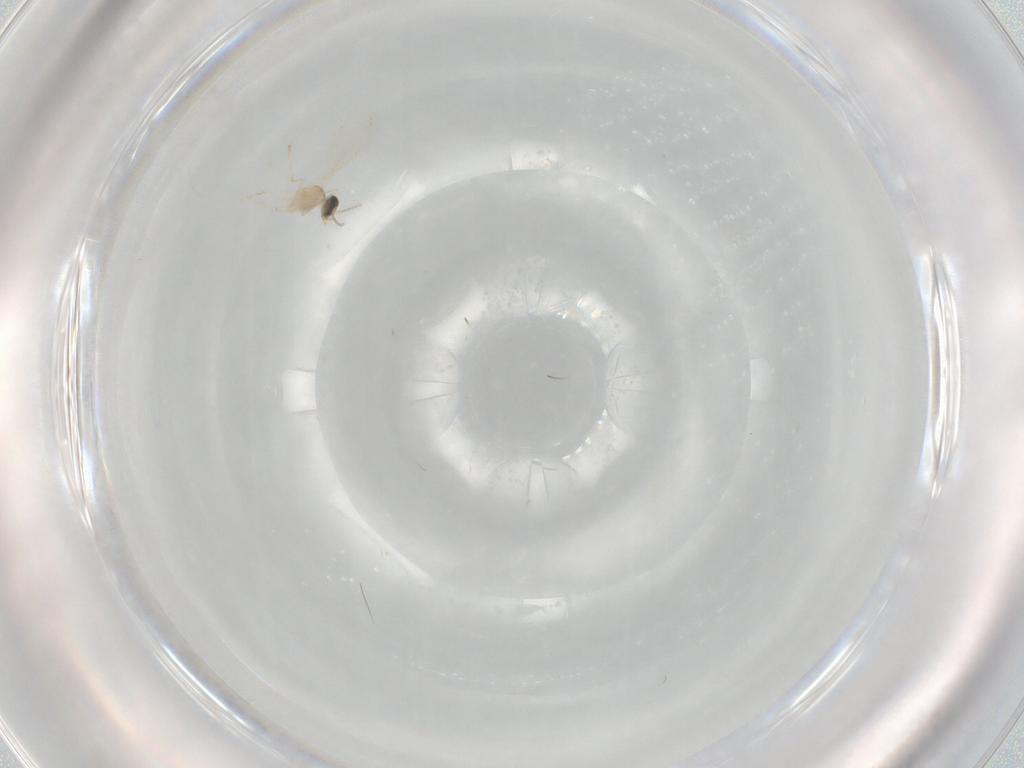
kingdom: Animalia
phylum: Arthropoda
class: Insecta
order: Diptera
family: Cecidomyiidae
